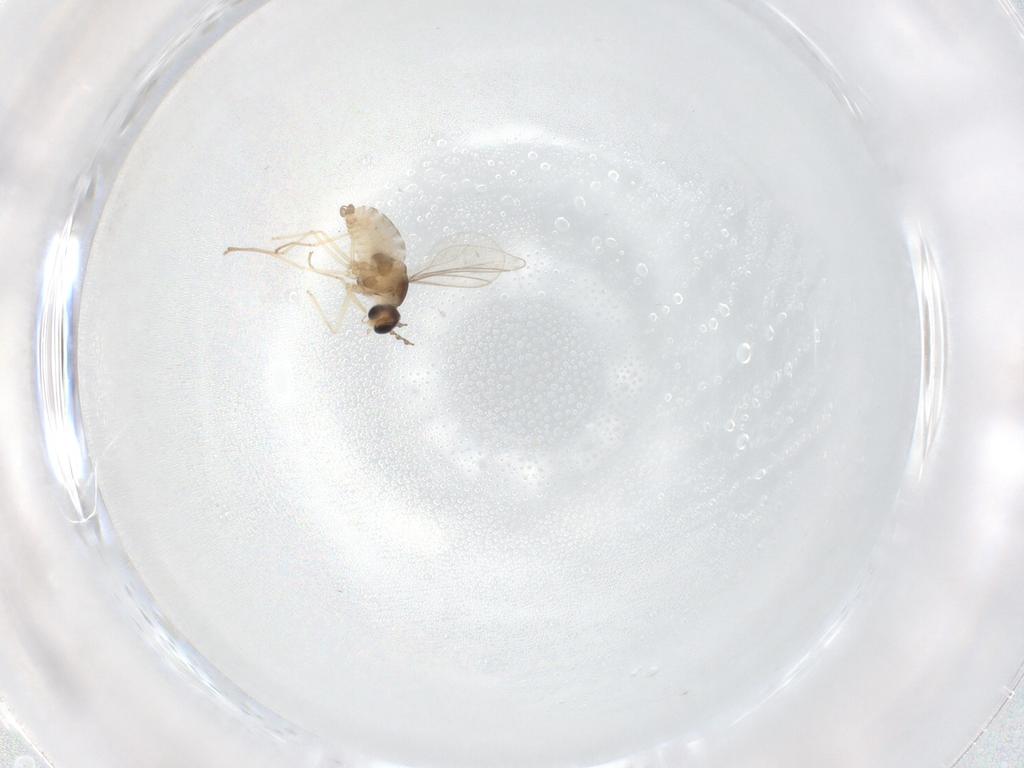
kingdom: Animalia
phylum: Arthropoda
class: Insecta
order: Diptera
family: Cecidomyiidae
